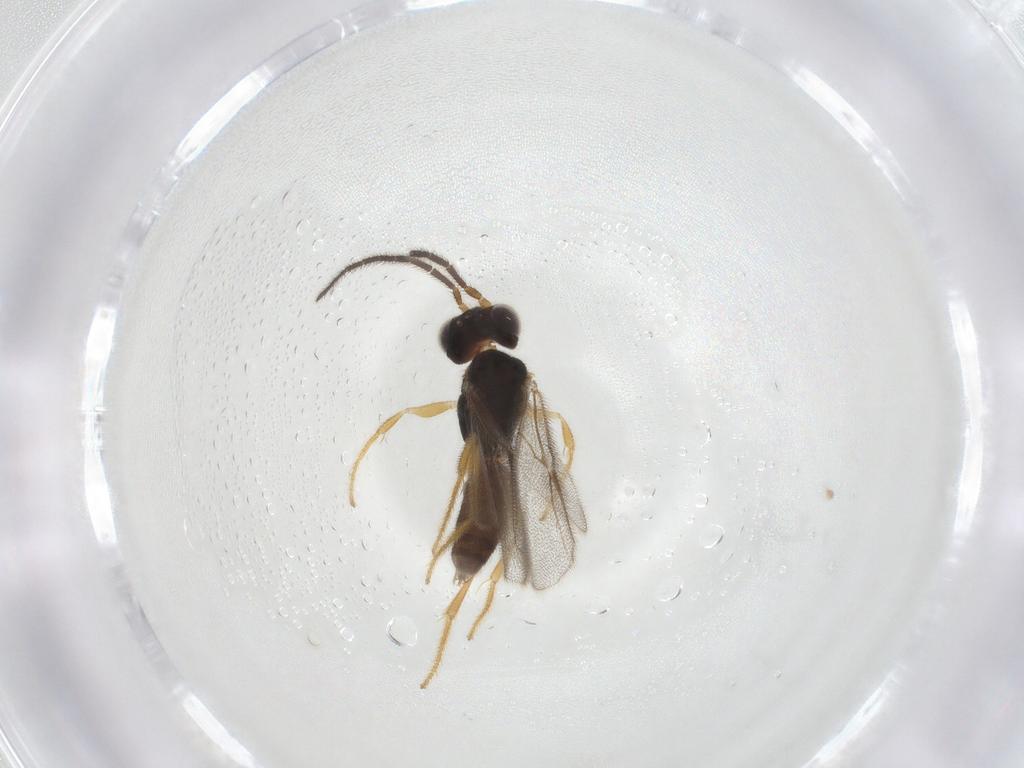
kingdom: Animalia
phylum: Arthropoda
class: Insecta
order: Hymenoptera
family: Dryinidae
